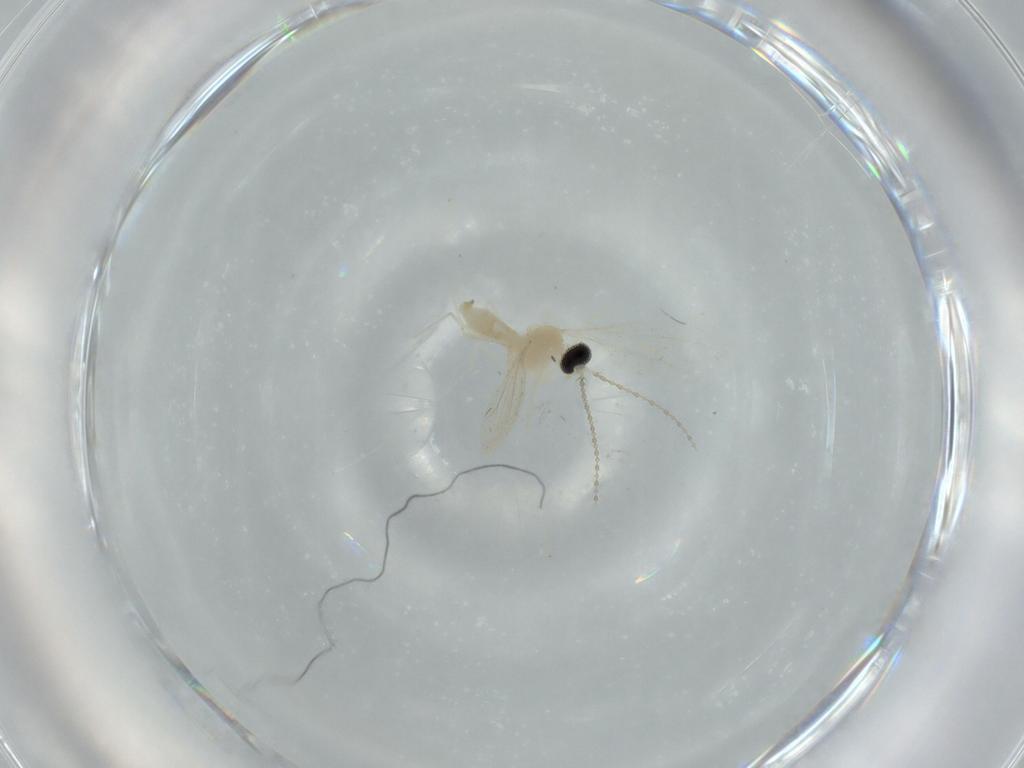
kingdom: Animalia
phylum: Arthropoda
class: Insecta
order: Diptera
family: Cecidomyiidae
